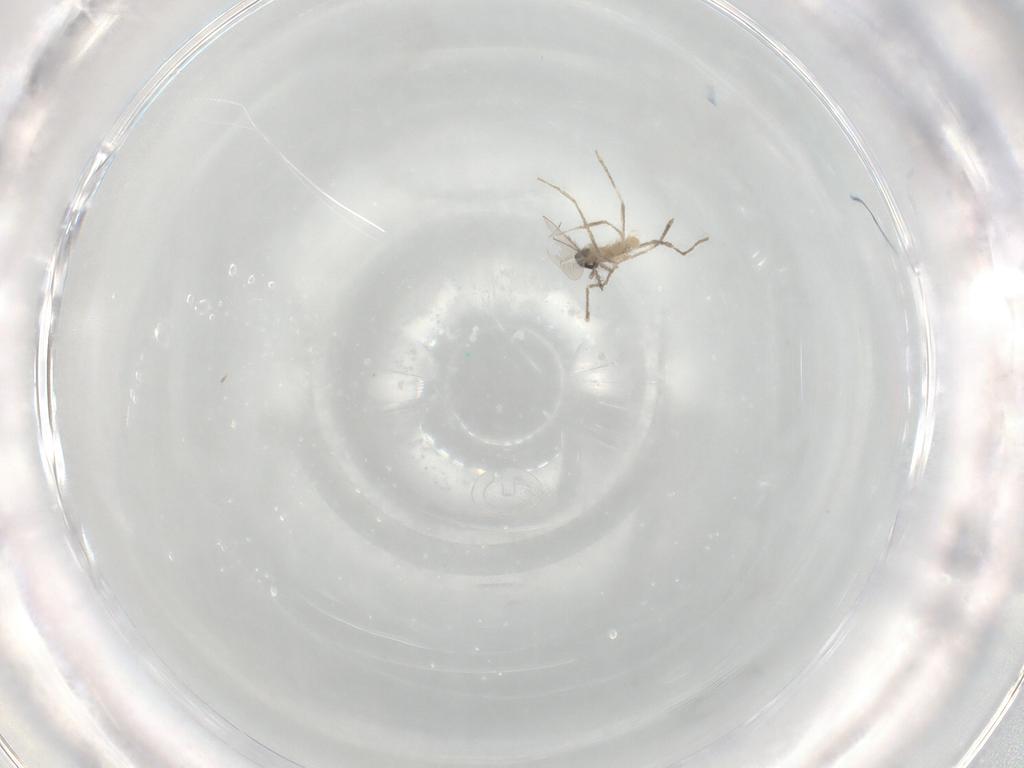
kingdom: Animalia
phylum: Arthropoda
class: Insecta
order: Diptera
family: Cecidomyiidae
